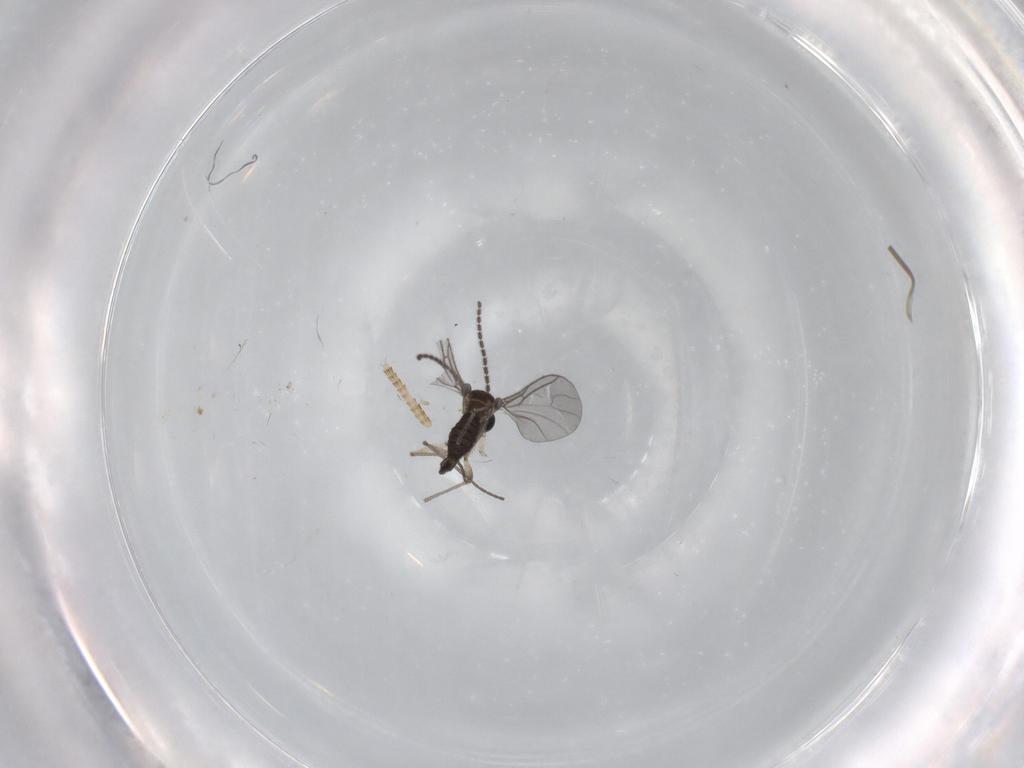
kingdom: Animalia
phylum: Arthropoda
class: Insecta
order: Diptera
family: Sciaridae
